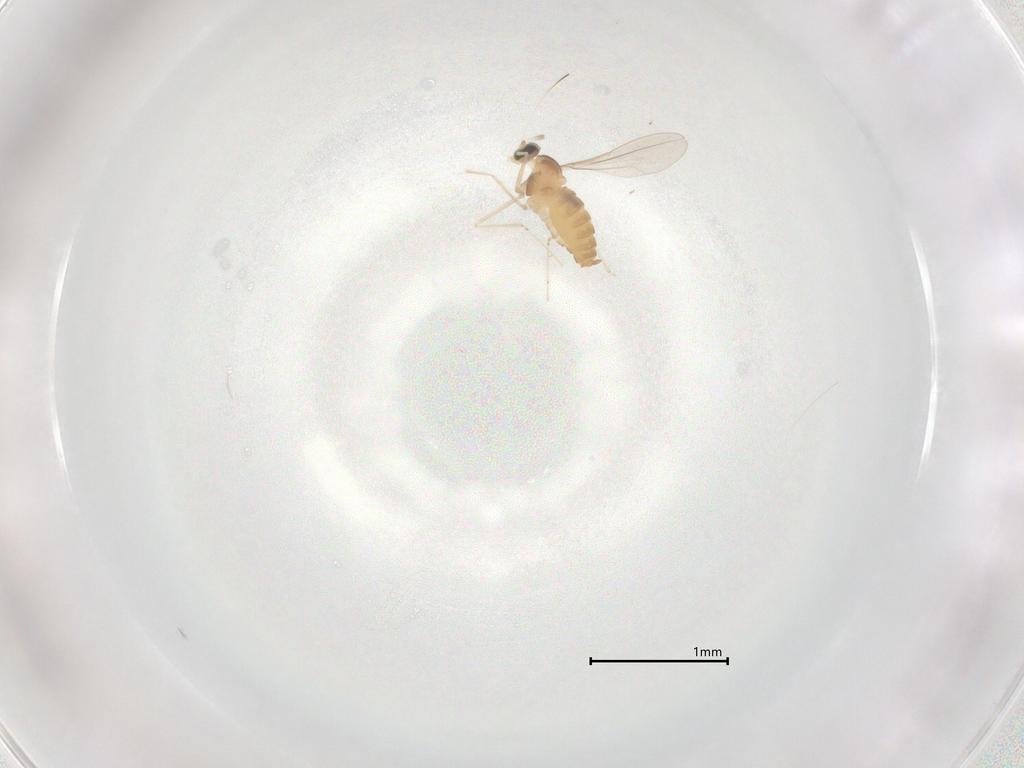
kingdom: Animalia
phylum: Arthropoda
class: Insecta
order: Diptera
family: Cecidomyiidae
